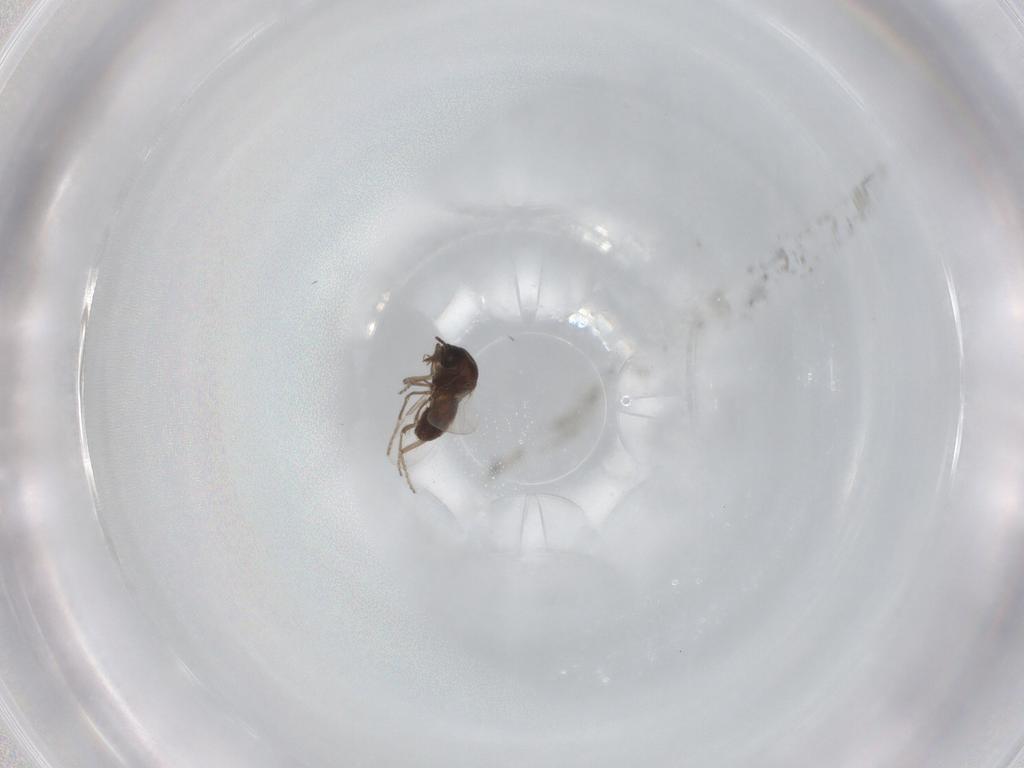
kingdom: Animalia
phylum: Arthropoda
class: Insecta
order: Diptera
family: Ceratopogonidae
